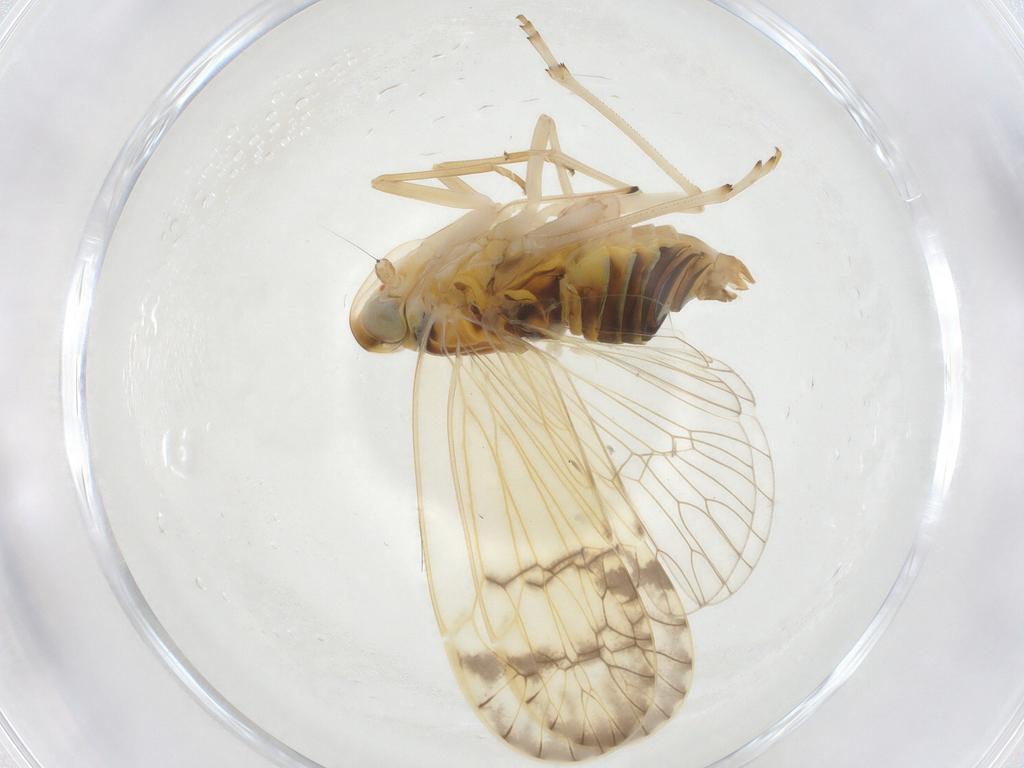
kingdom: Animalia
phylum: Arthropoda
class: Insecta
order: Hemiptera
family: Kinnaridae
